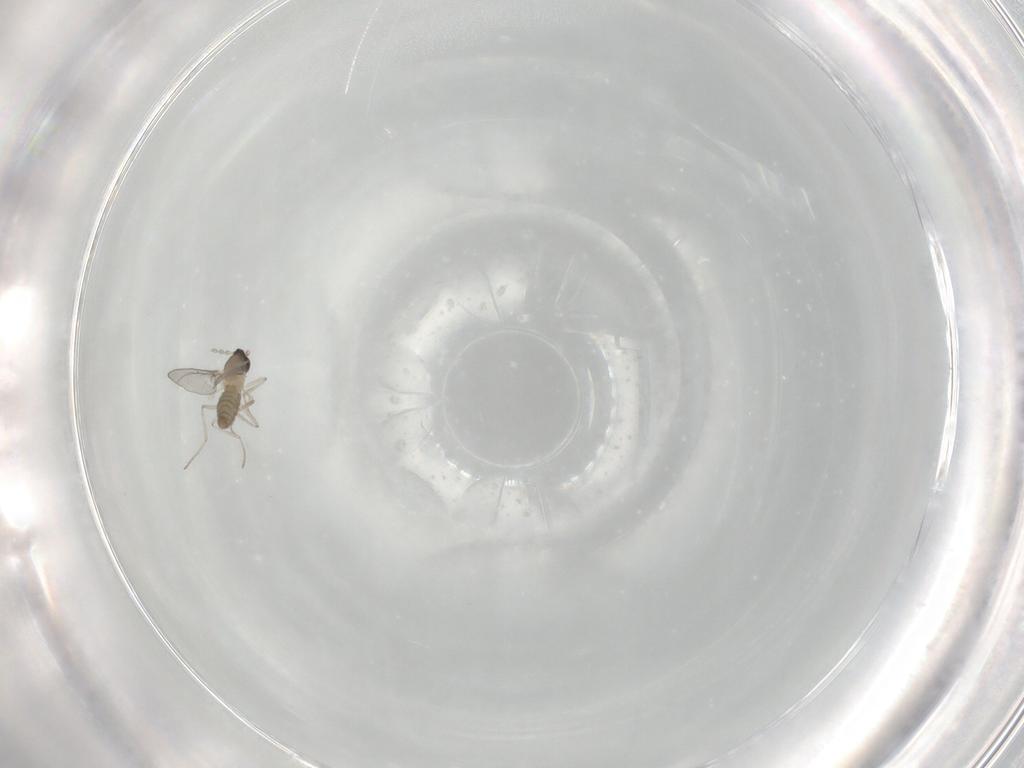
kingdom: Animalia
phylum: Arthropoda
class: Insecta
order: Diptera
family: Cecidomyiidae
